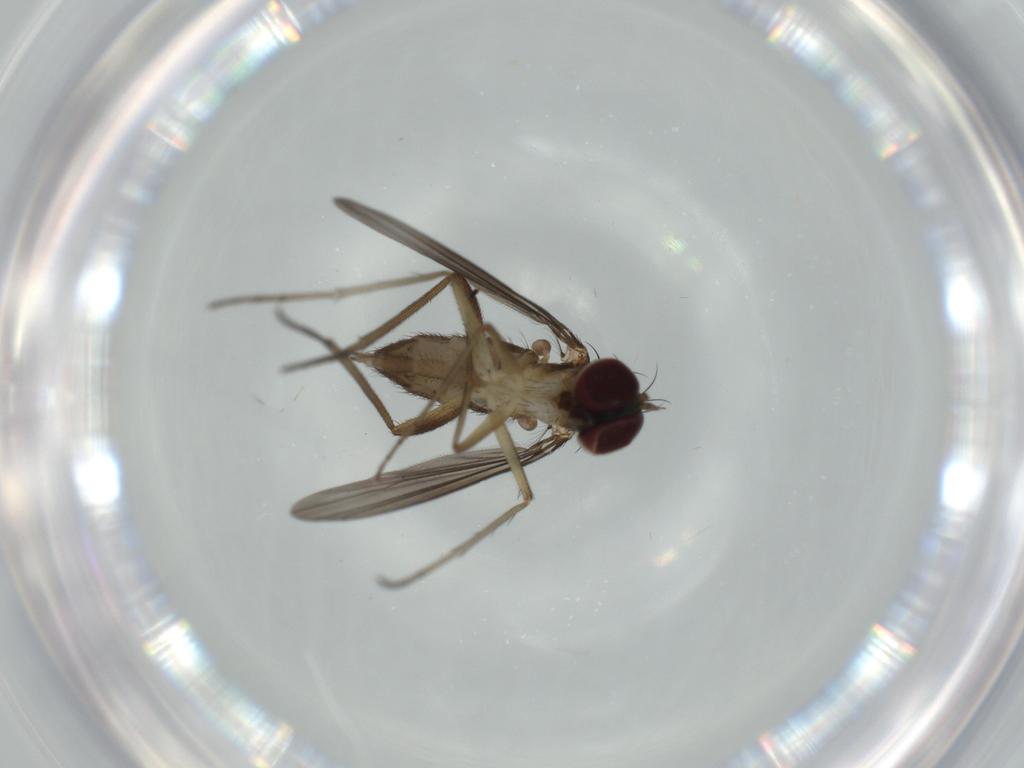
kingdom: Animalia
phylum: Arthropoda
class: Insecta
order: Diptera
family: Dolichopodidae
